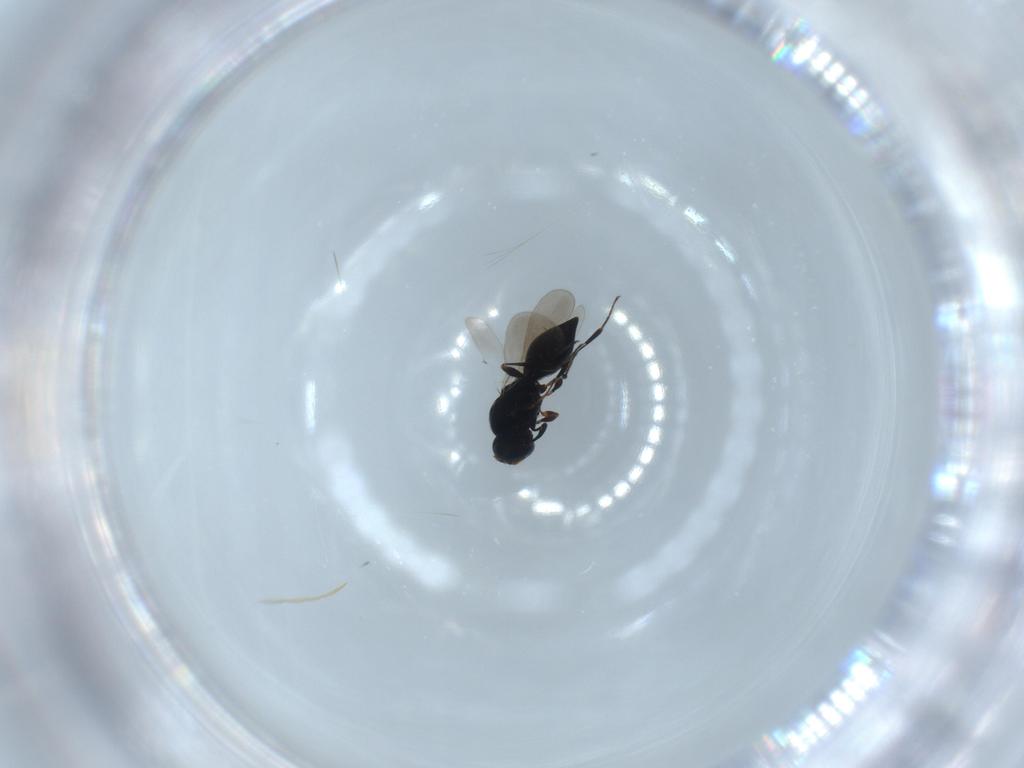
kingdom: Animalia
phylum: Arthropoda
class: Insecta
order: Hymenoptera
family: Platygastridae
